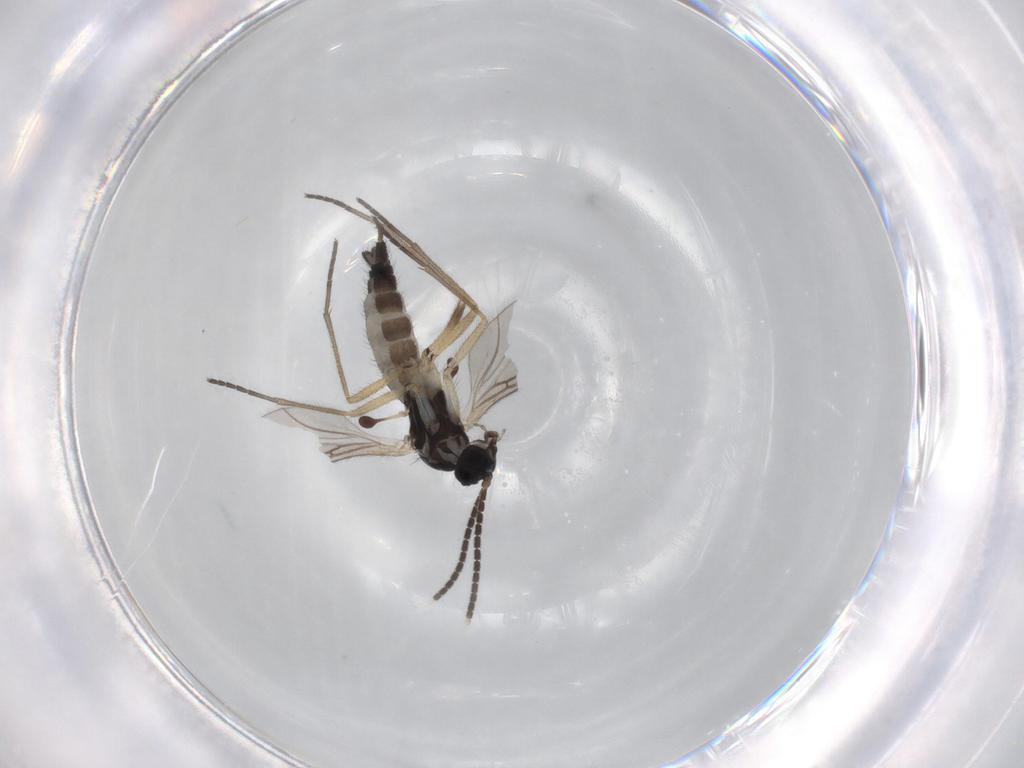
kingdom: Animalia
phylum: Arthropoda
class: Insecta
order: Diptera
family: Sciaridae
